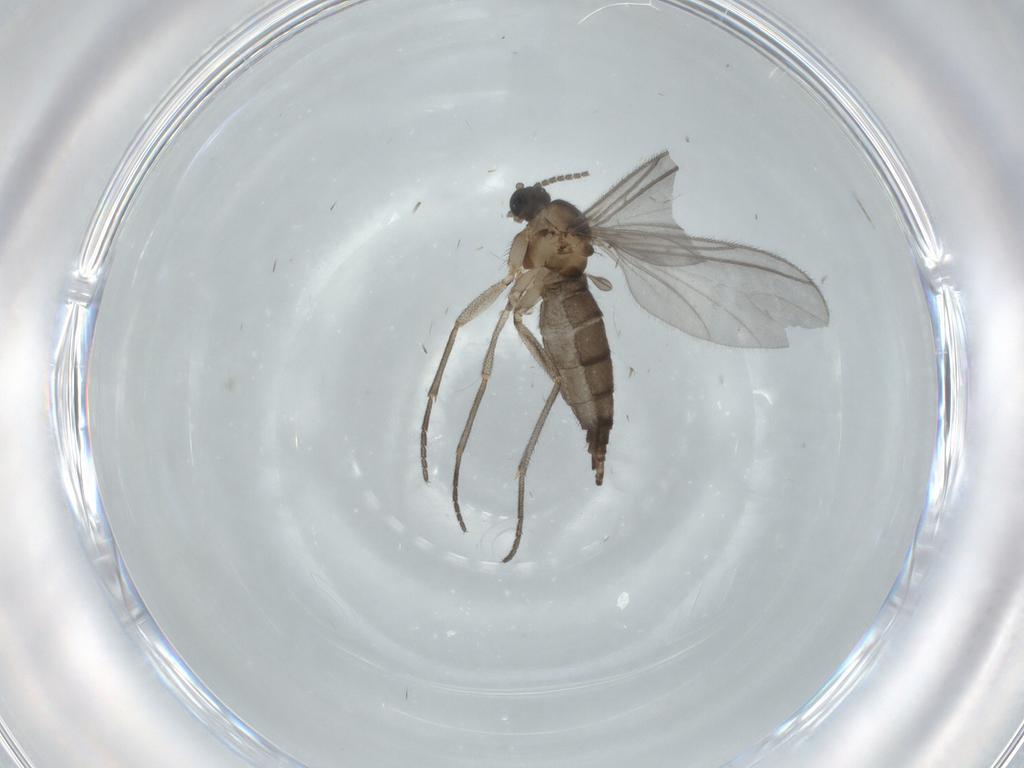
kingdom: Animalia
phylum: Arthropoda
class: Insecta
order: Diptera
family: Sciaridae
